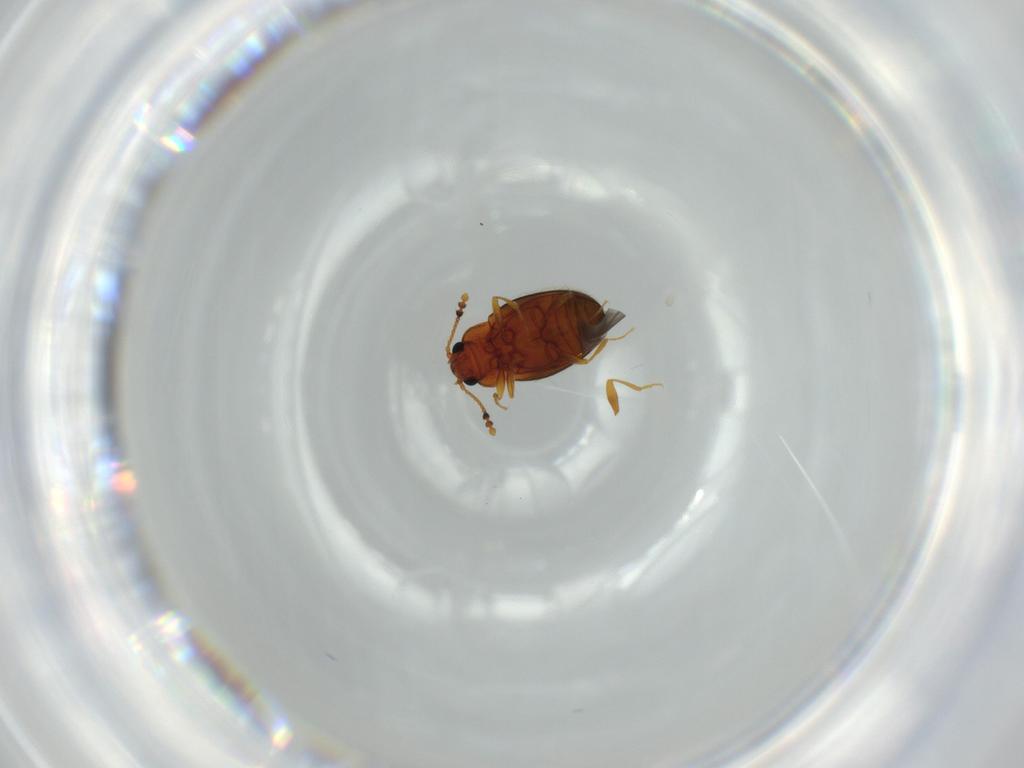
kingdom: Animalia
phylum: Arthropoda
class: Insecta
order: Coleoptera
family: Erotylidae
